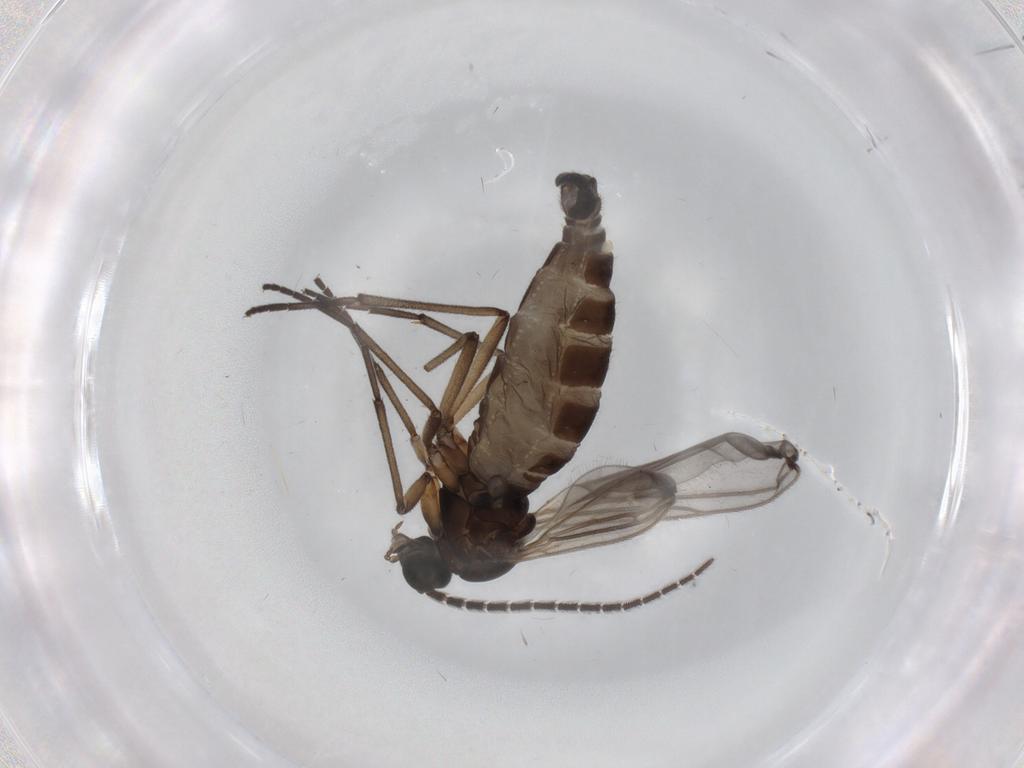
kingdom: Animalia
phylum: Arthropoda
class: Insecta
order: Diptera
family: Sciaridae
